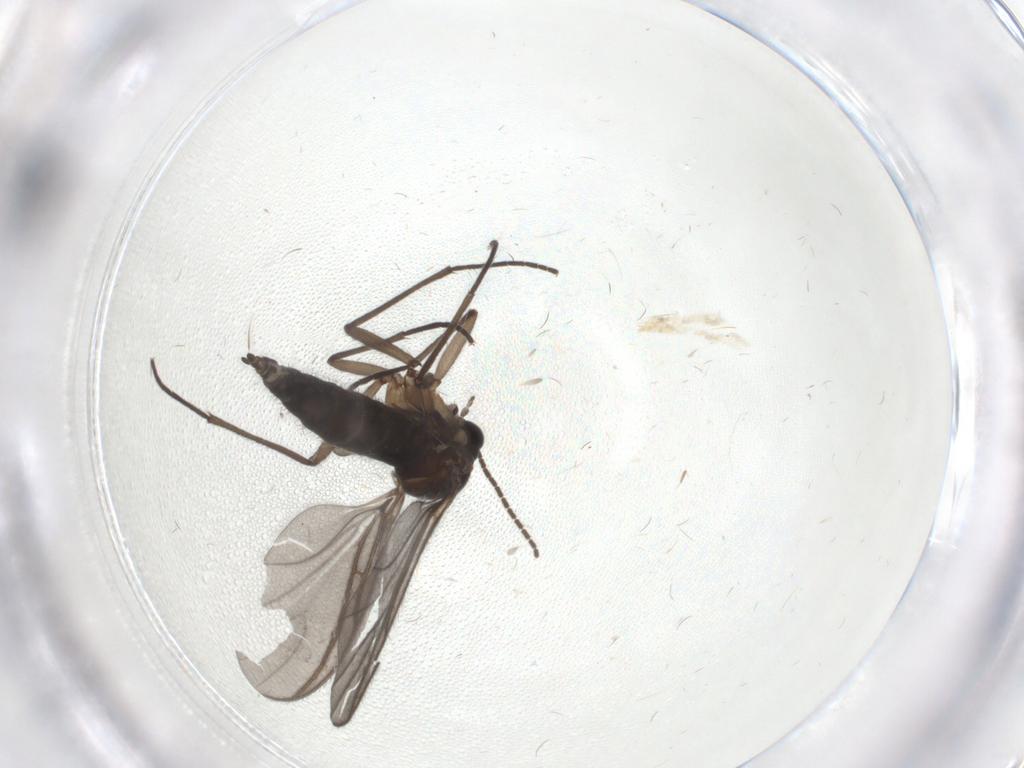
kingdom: Animalia
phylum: Arthropoda
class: Insecta
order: Diptera
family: Sciaridae
